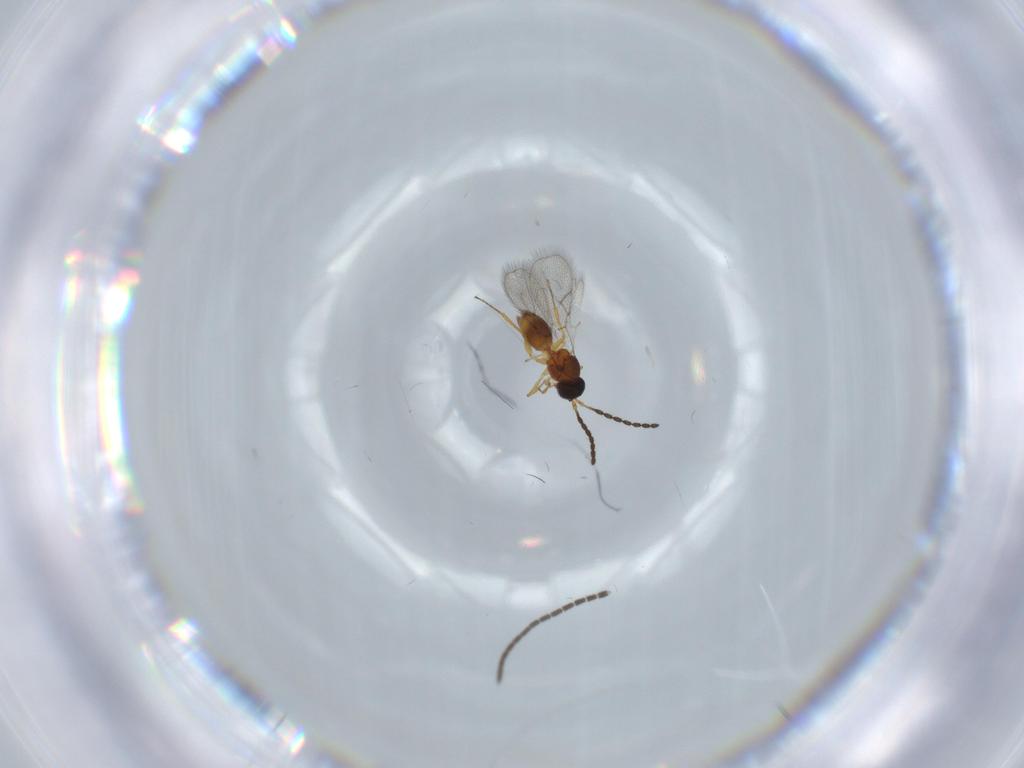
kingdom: Animalia
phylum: Arthropoda
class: Insecta
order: Hymenoptera
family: Figitidae
